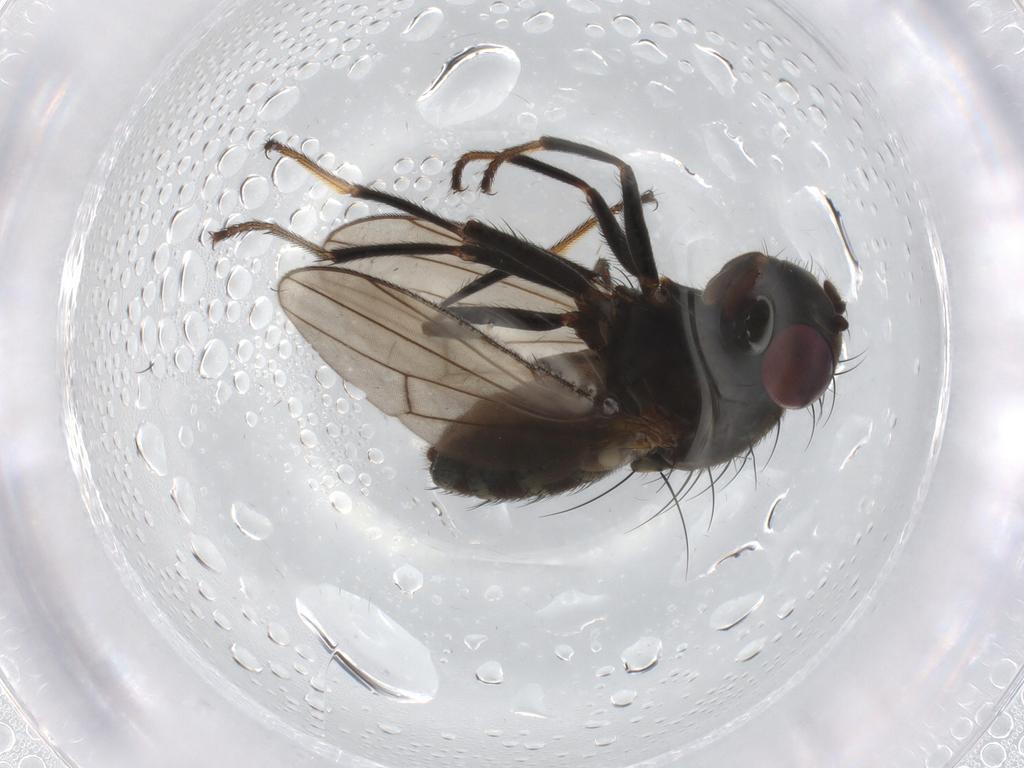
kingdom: Animalia
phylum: Arthropoda
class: Insecta
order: Diptera
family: Ephydridae
